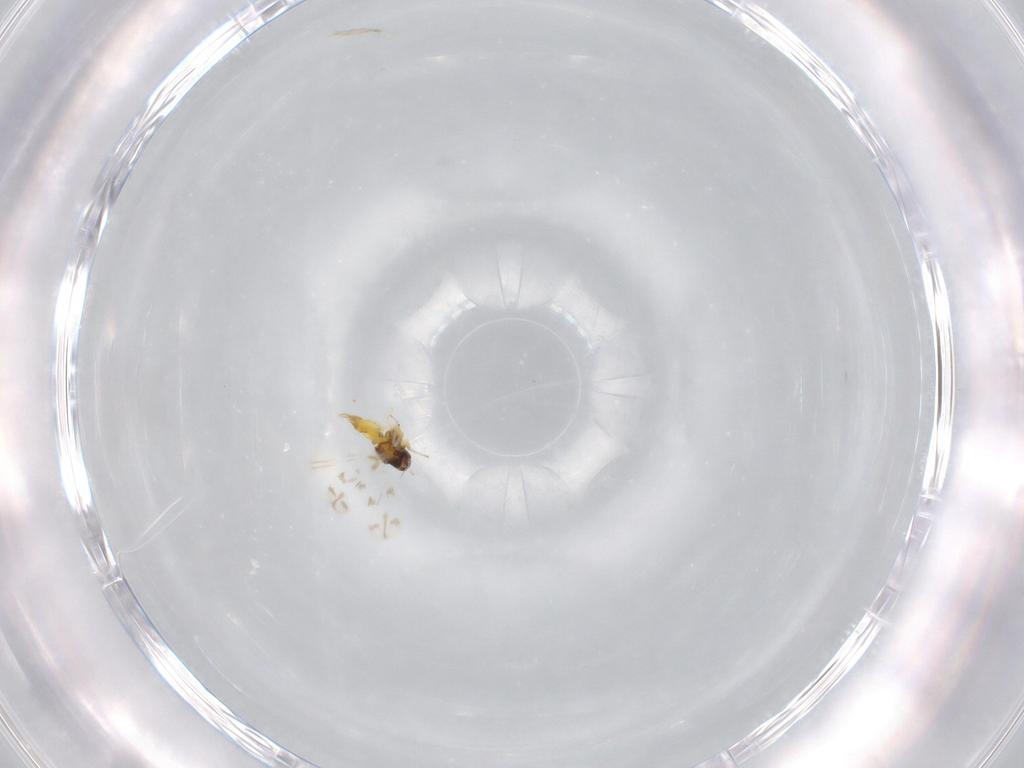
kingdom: Animalia
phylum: Arthropoda
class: Insecta
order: Hemiptera
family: Aleyrodidae
